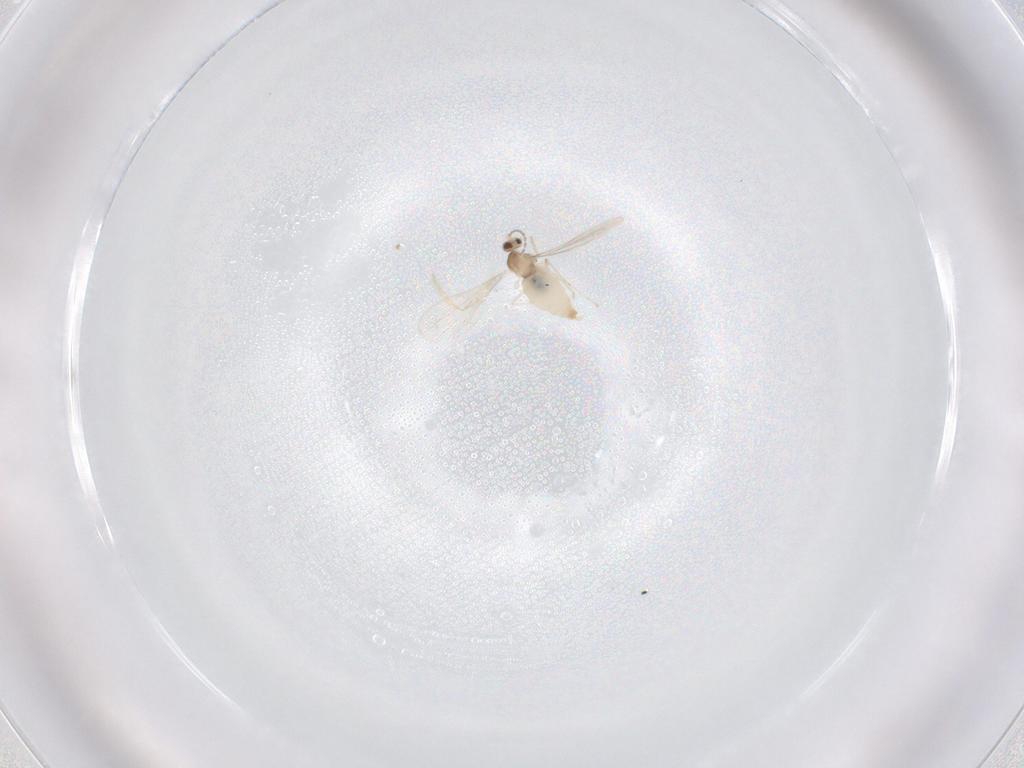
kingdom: Animalia
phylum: Arthropoda
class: Insecta
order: Diptera
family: Cecidomyiidae
